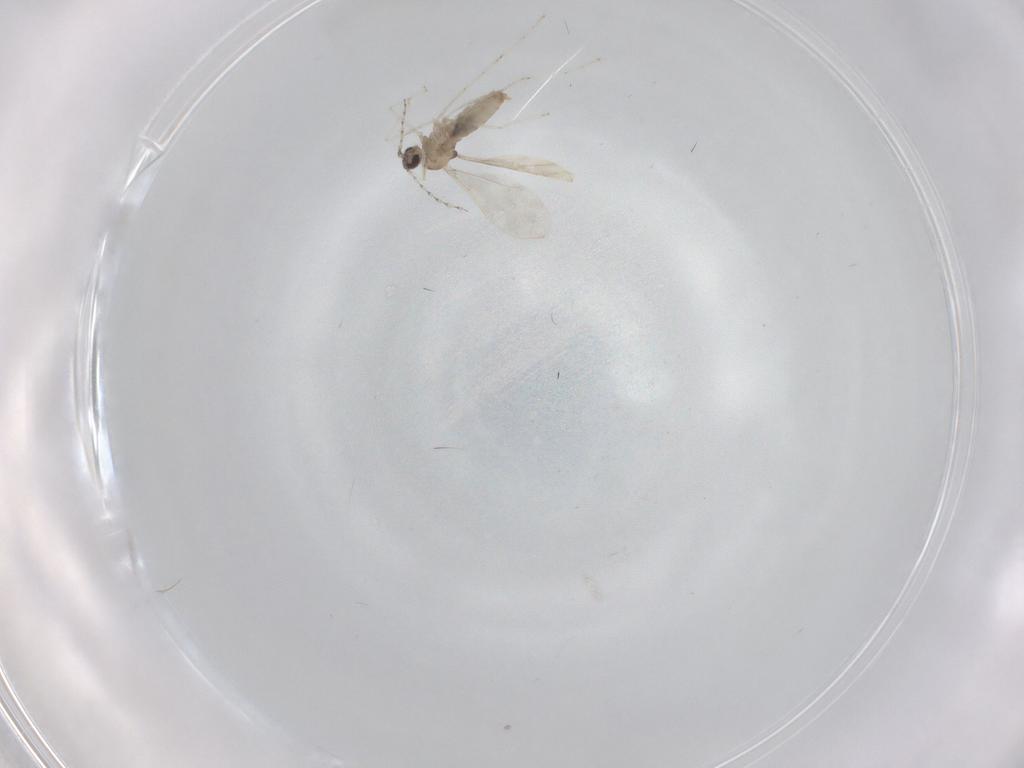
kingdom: Animalia
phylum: Arthropoda
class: Insecta
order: Diptera
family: Cecidomyiidae
